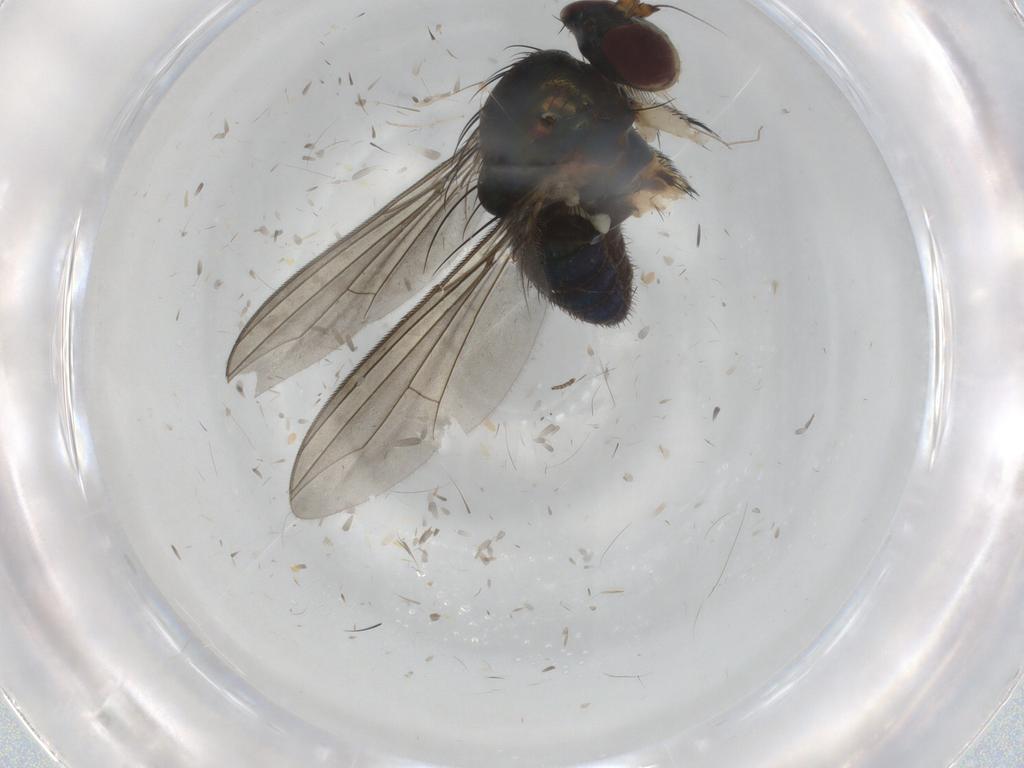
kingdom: Animalia
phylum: Arthropoda
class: Insecta
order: Diptera
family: Dolichopodidae
